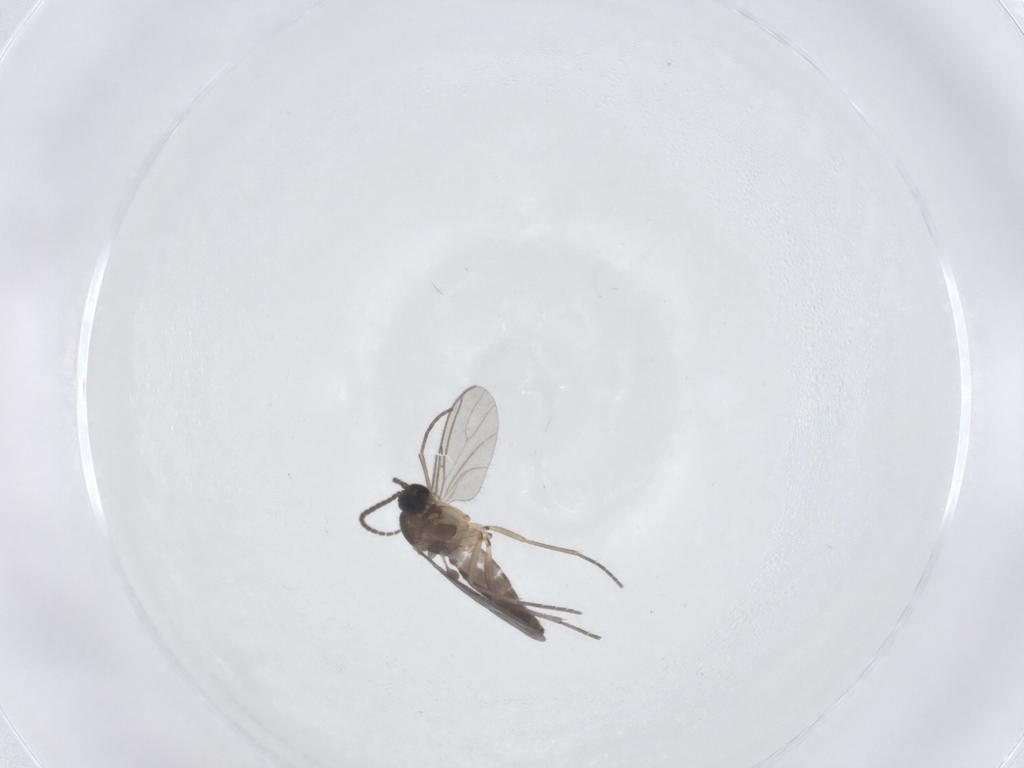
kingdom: Animalia
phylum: Arthropoda
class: Insecta
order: Diptera
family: Sciaridae
